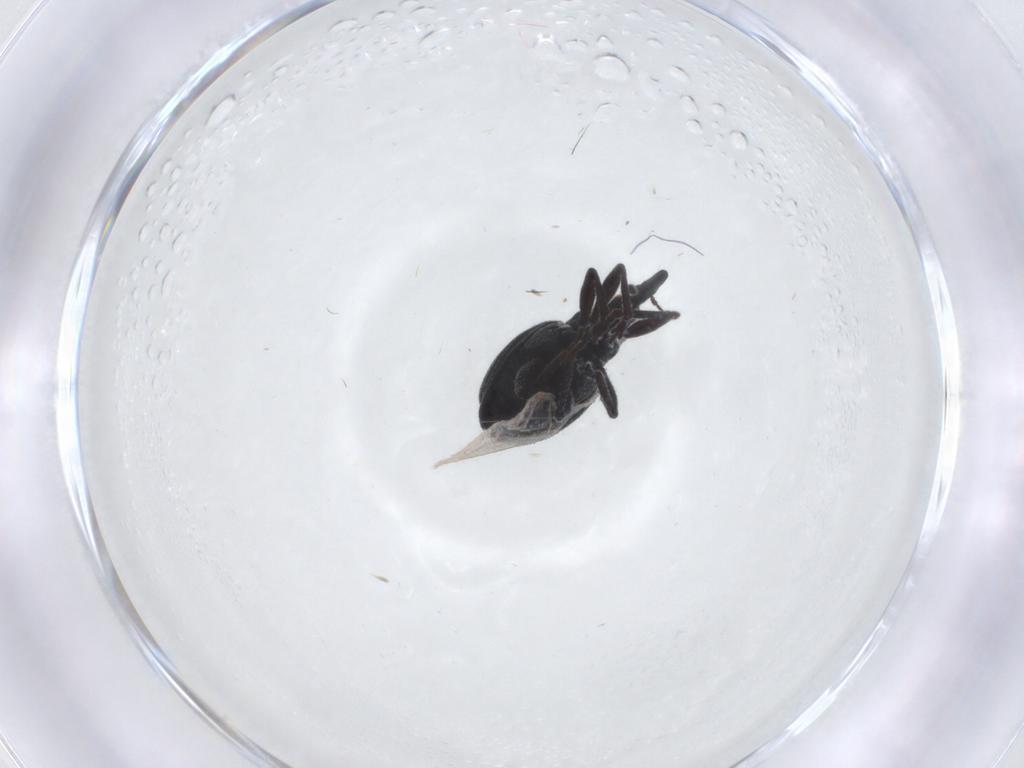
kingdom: Animalia
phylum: Arthropoda
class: Insecta
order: Coleoptera
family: Brentidae
